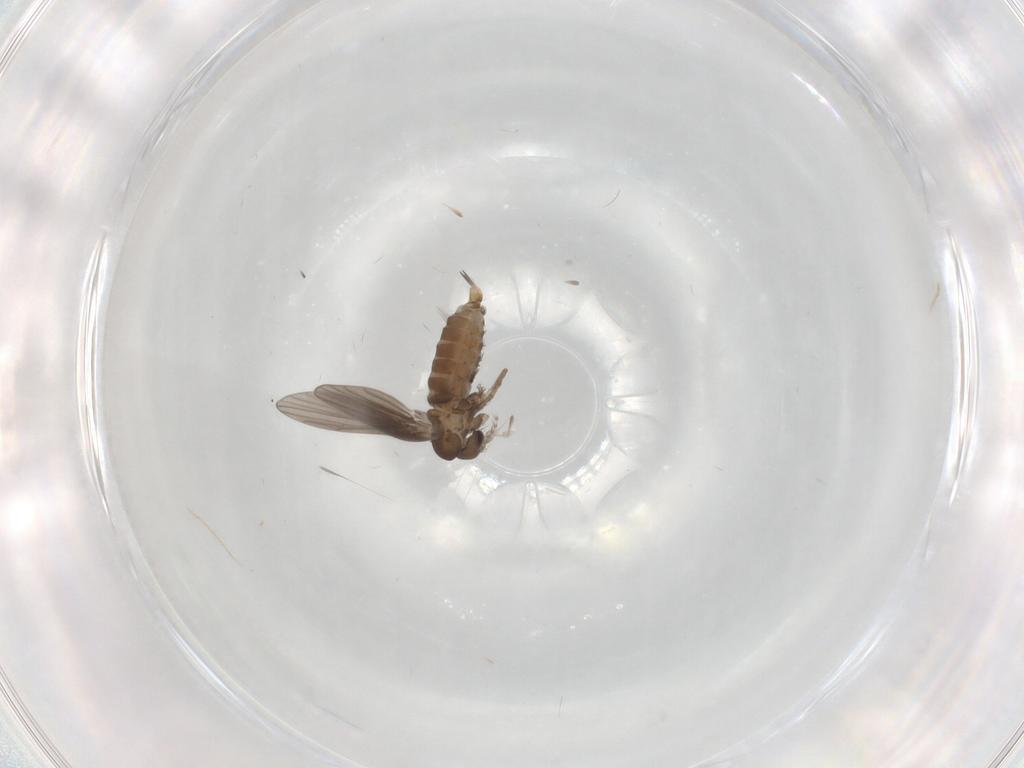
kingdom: Animalia
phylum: Arthropoda
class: Insecta
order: Diptera
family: Psychodidae
